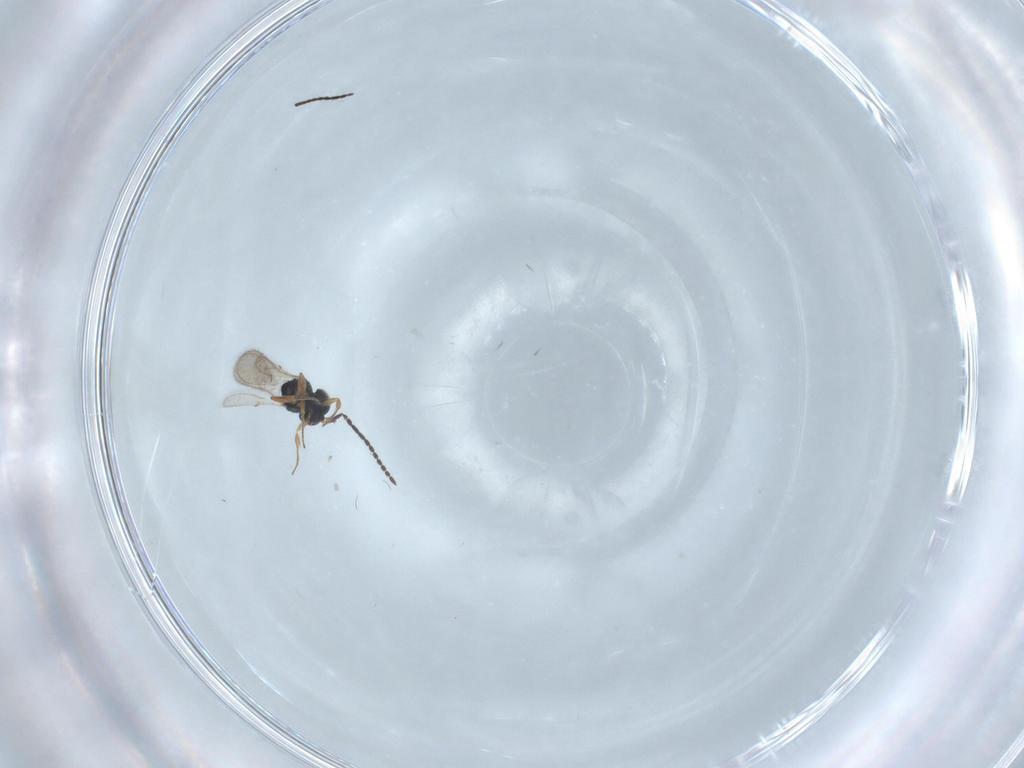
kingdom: Animalia
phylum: Arthropoda
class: Insecta
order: Hymenoptera
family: Scelionidae
